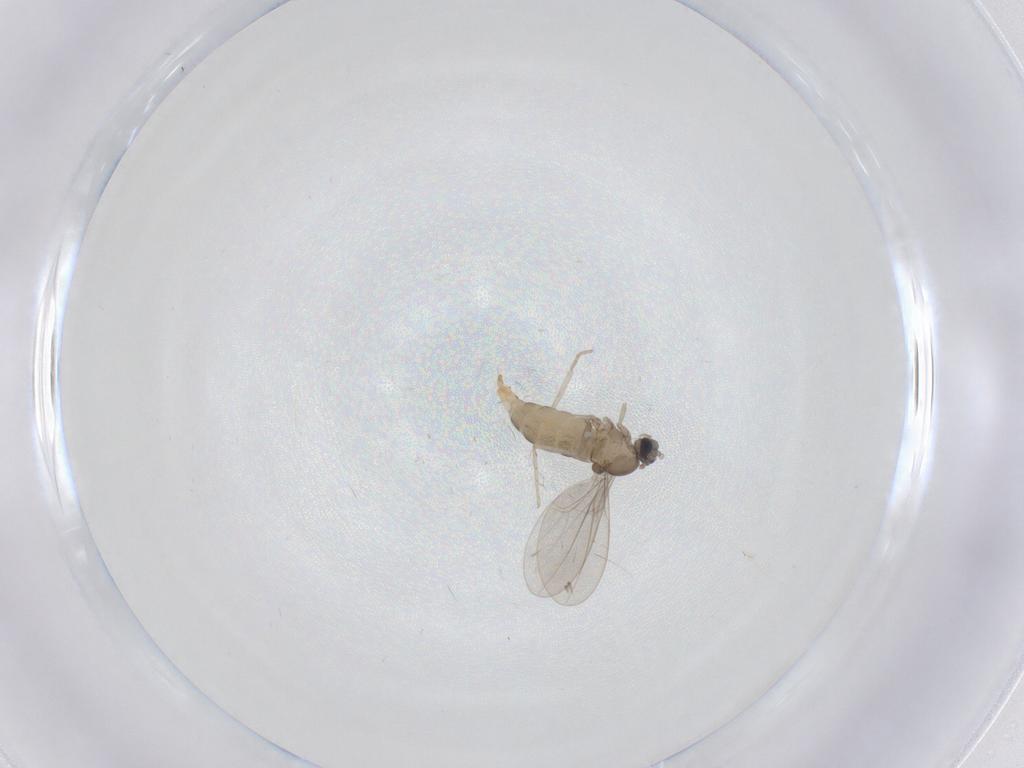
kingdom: Animalia
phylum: Arthropoda
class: Insecta
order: Diptera
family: Cecidomyiidae
